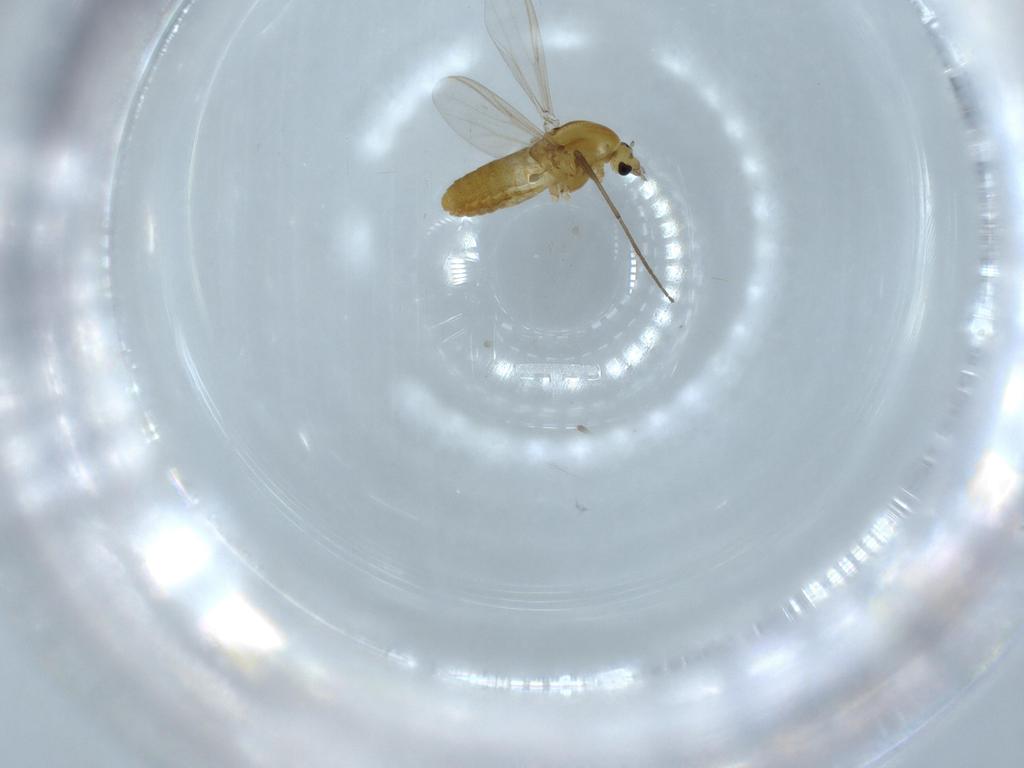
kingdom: Animalia
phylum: Arthropoda
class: Insecta
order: Diptera
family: Chironomidae
